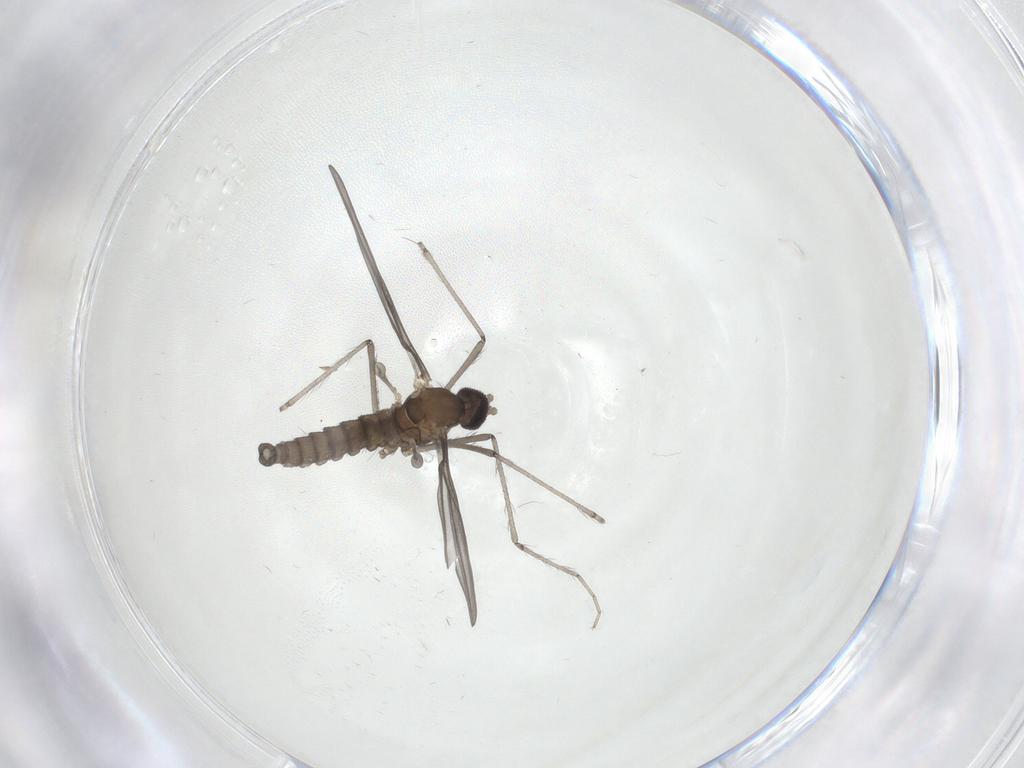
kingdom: Animalia
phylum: Arthropoda
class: Insecta
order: Diptera
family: Cecidomyiidae
